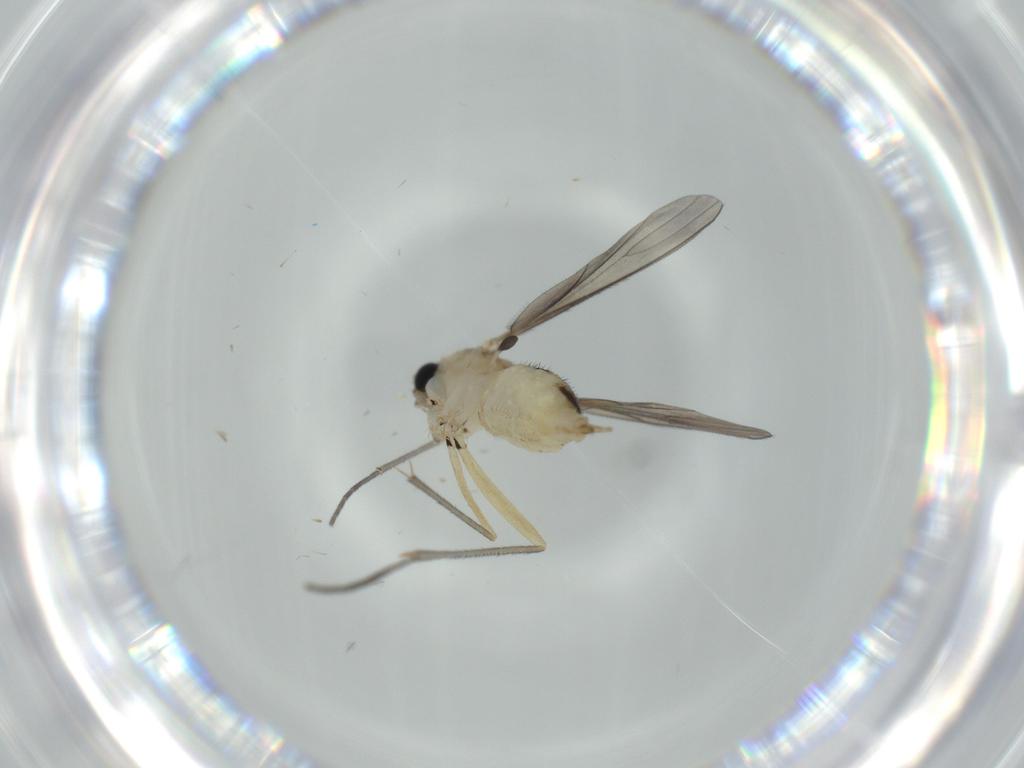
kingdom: Animalia
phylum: Arthropoda
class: Insecta
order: Diptera
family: Sciaridae
